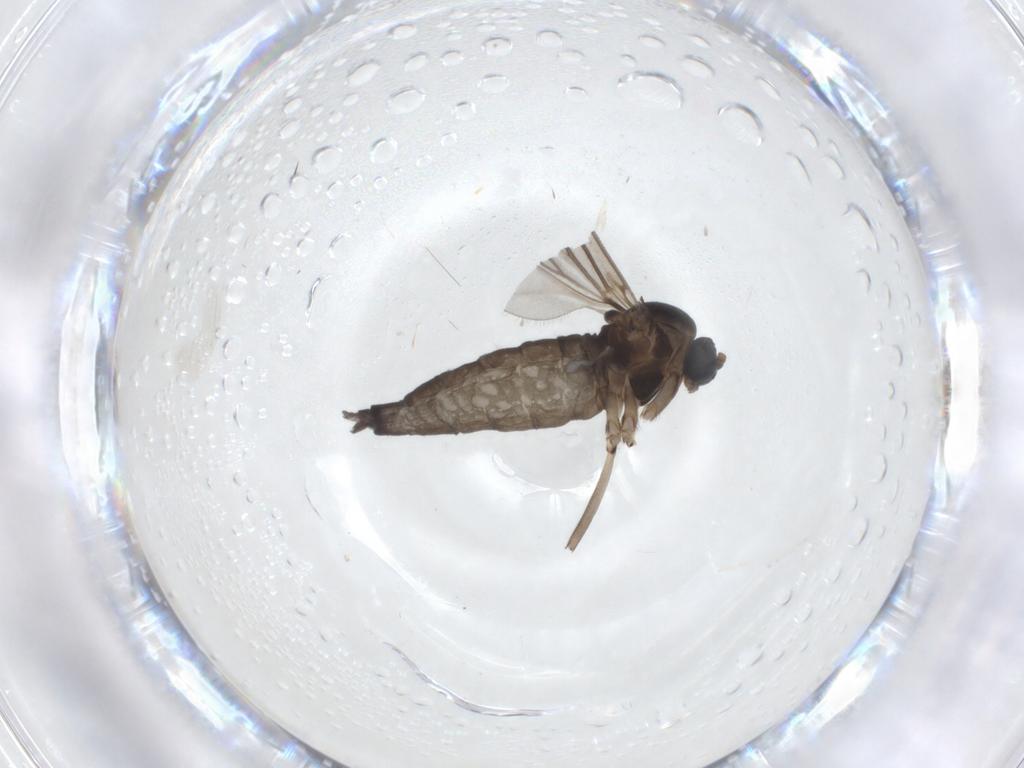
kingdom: Animalia
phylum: Arthropoda
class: Insecta
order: Diptera
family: Sciaridae
